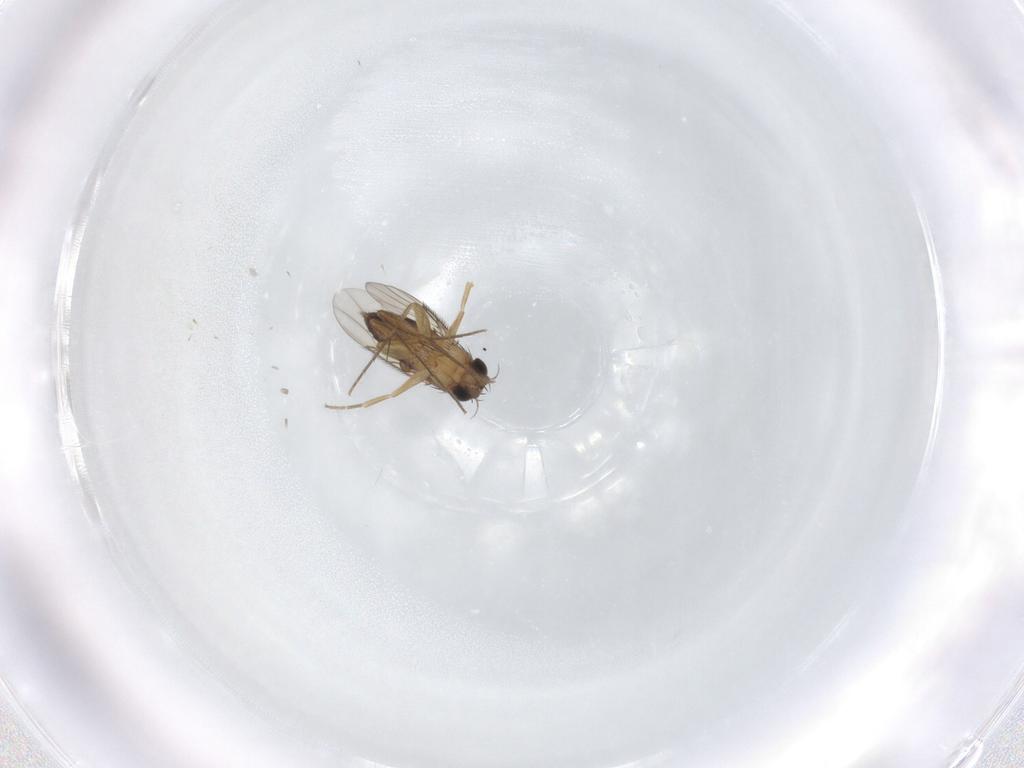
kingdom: Animalia
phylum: Arthropoda
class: Insecta
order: Diptera
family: Phoridae
